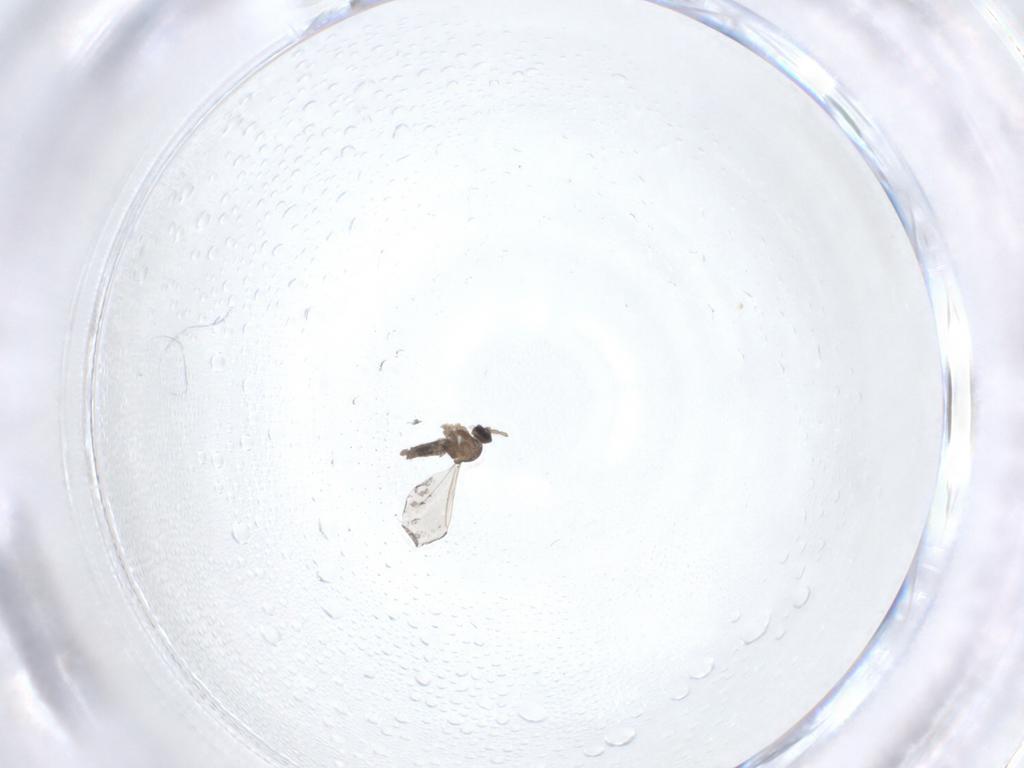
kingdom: Animalia
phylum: Arthropoda
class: Insecta
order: Diptera
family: Cecidomyiidae
